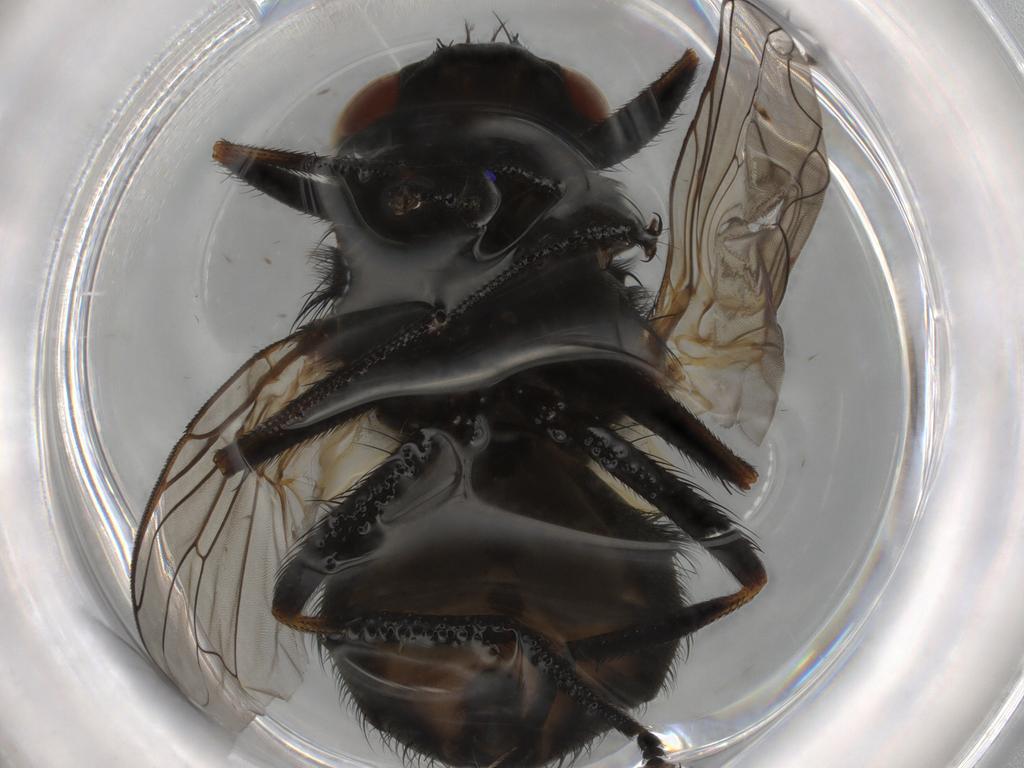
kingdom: Animalia
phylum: Arthropoda
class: Insecta
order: Diptera
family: Muscidae
